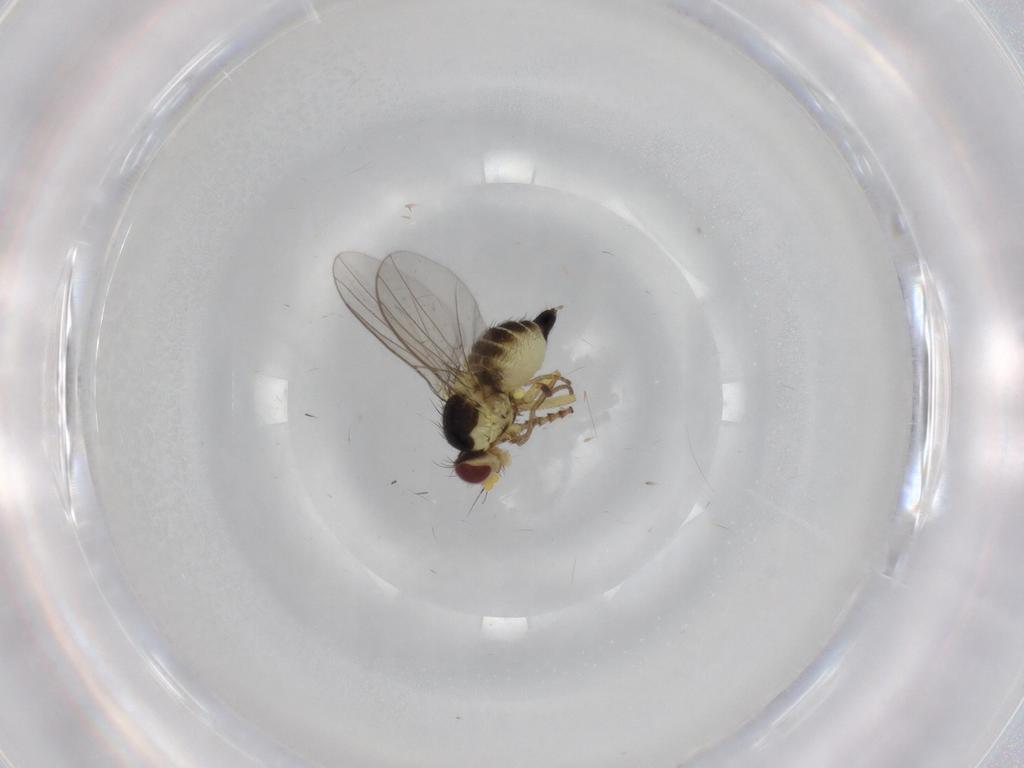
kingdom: Animalia
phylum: Arthropoda
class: Insecta
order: Diptera
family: Agromyzidae
